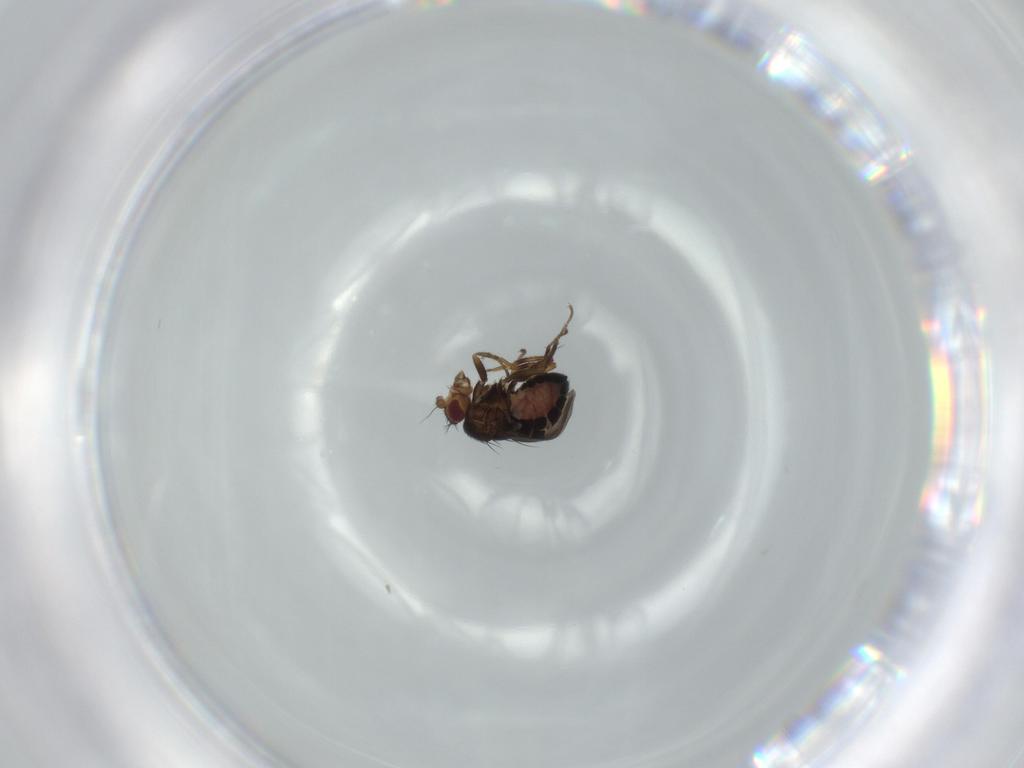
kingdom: Animalia
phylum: Arthropoda
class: Insecta
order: Diptera
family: Sphaeroceridae
